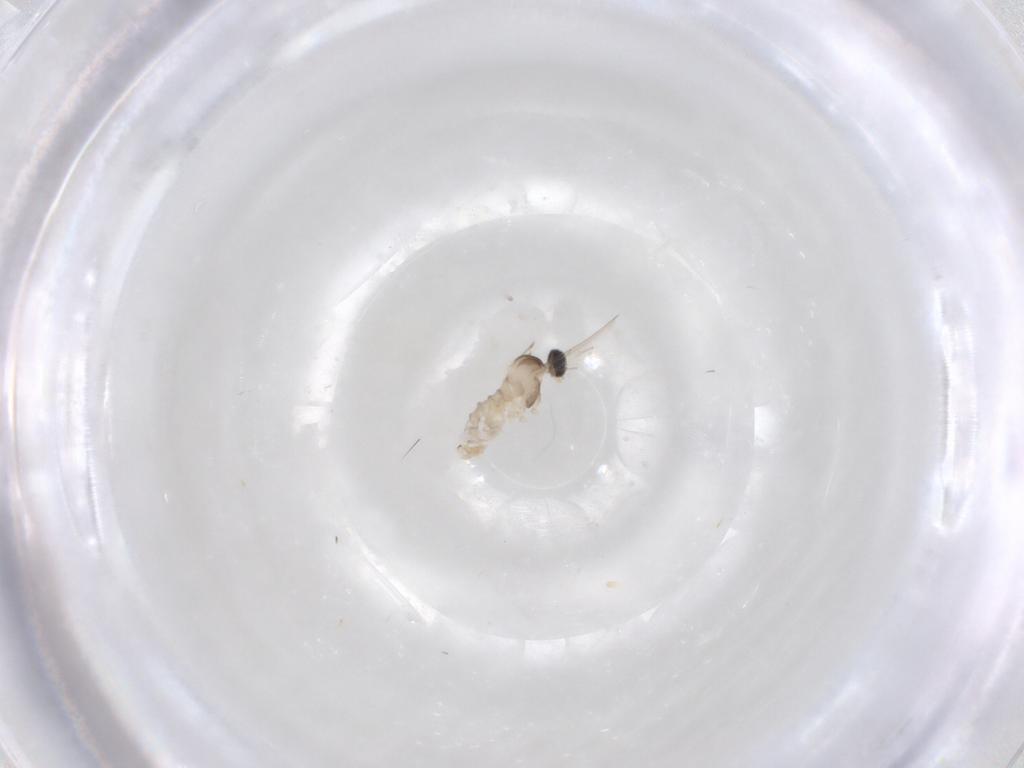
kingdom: Animalia
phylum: Arthropoda
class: Insecta
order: Diptera
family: Cecidomyiidae
